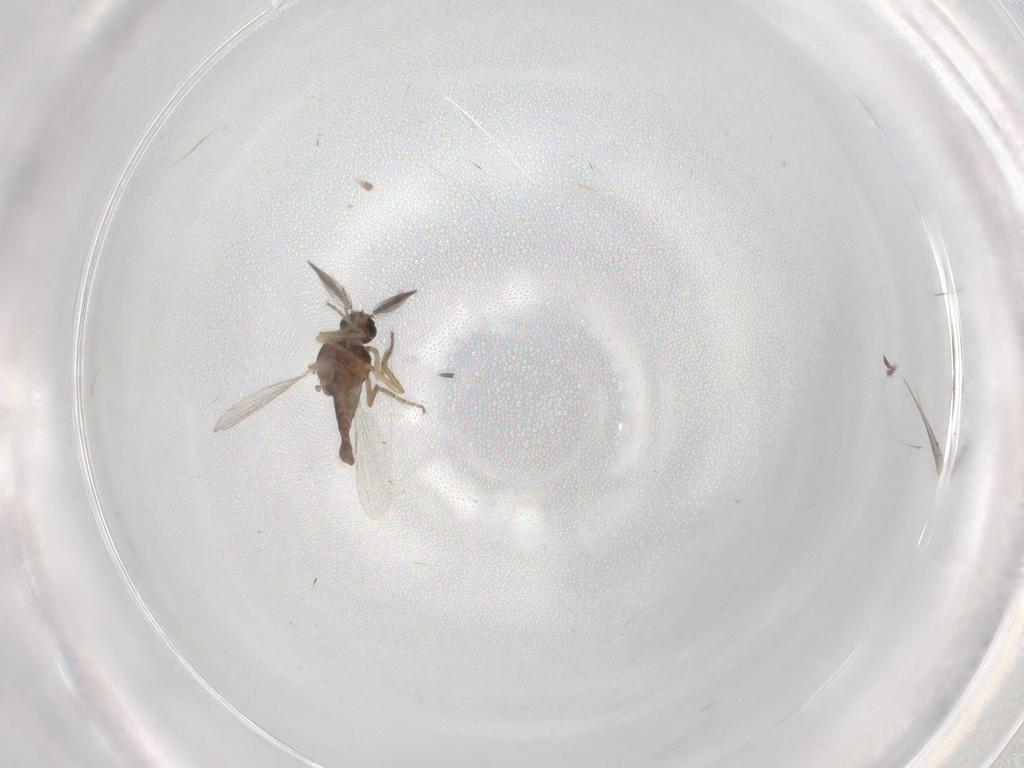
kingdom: Animalia
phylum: Arthropoda
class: Insecta
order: Diptera
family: Ceratopogonidae
